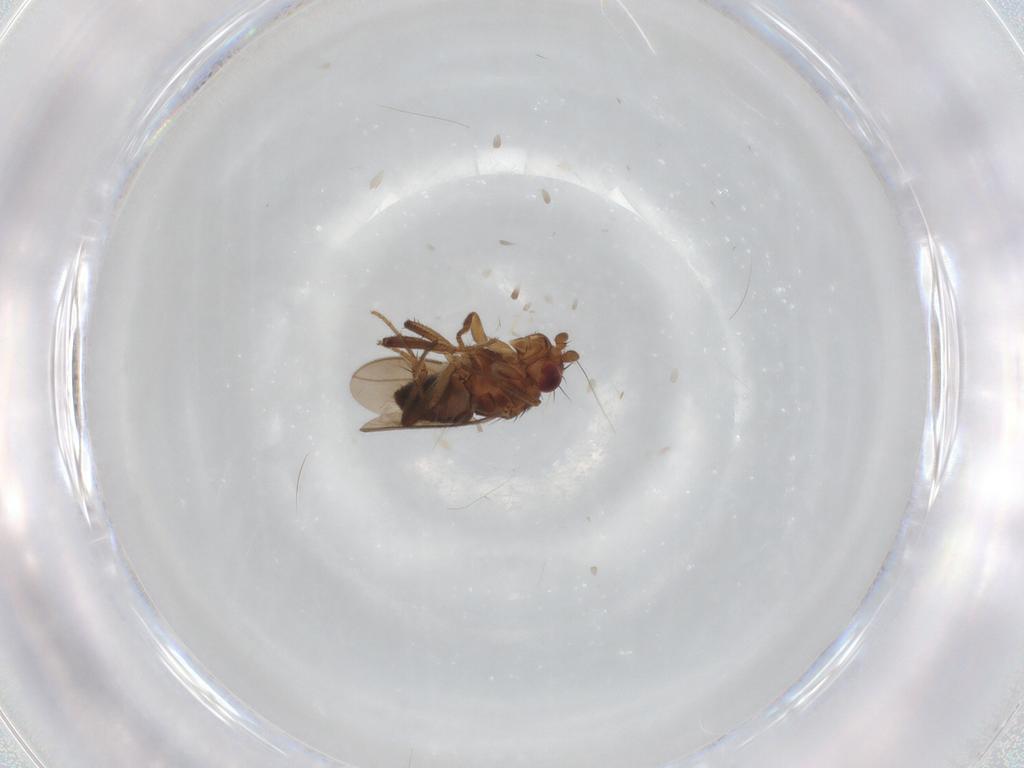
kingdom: Animalia
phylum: Arthropoda
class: Insecta
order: Diptera
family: Sphaeroceridae
